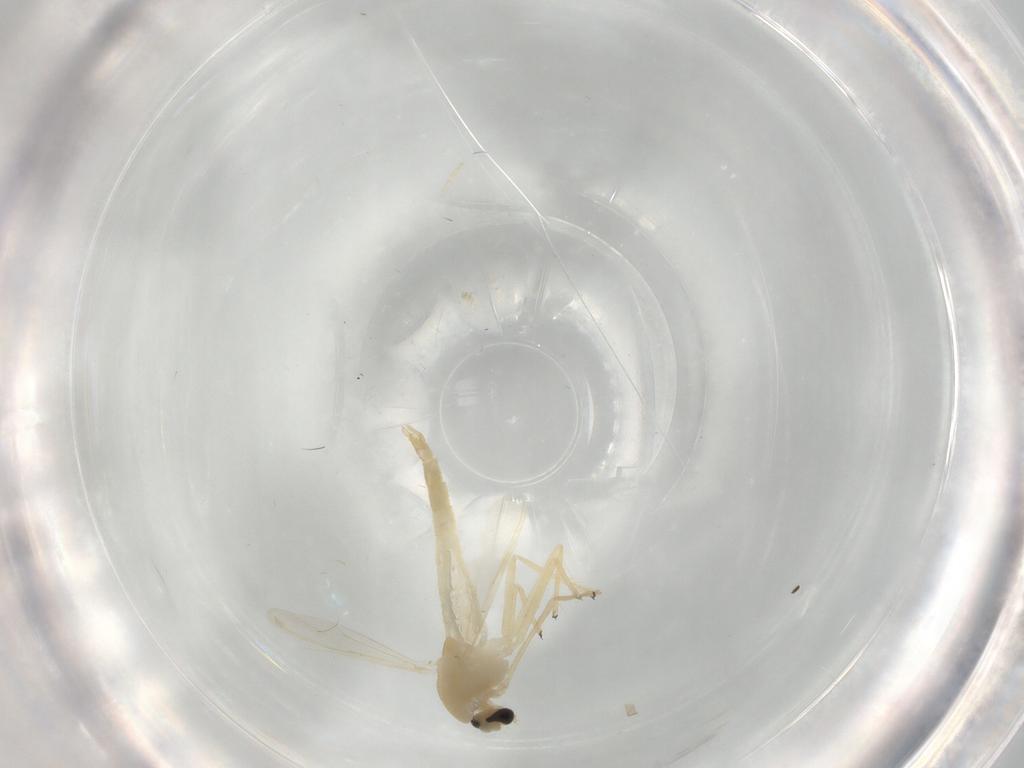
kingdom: Animalia
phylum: Arthropoda
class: Insecta
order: Diptera
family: Chironomidae
